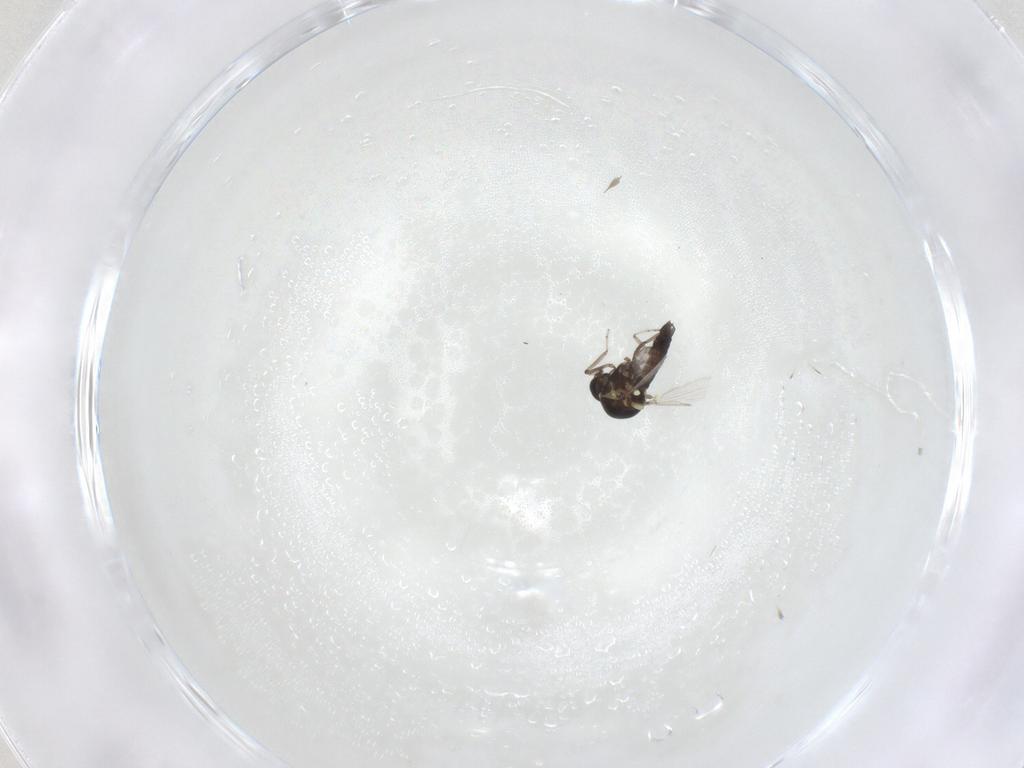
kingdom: Animalia
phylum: Arthropoda
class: Insecta
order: Diptera
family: Ceratopogonidae
